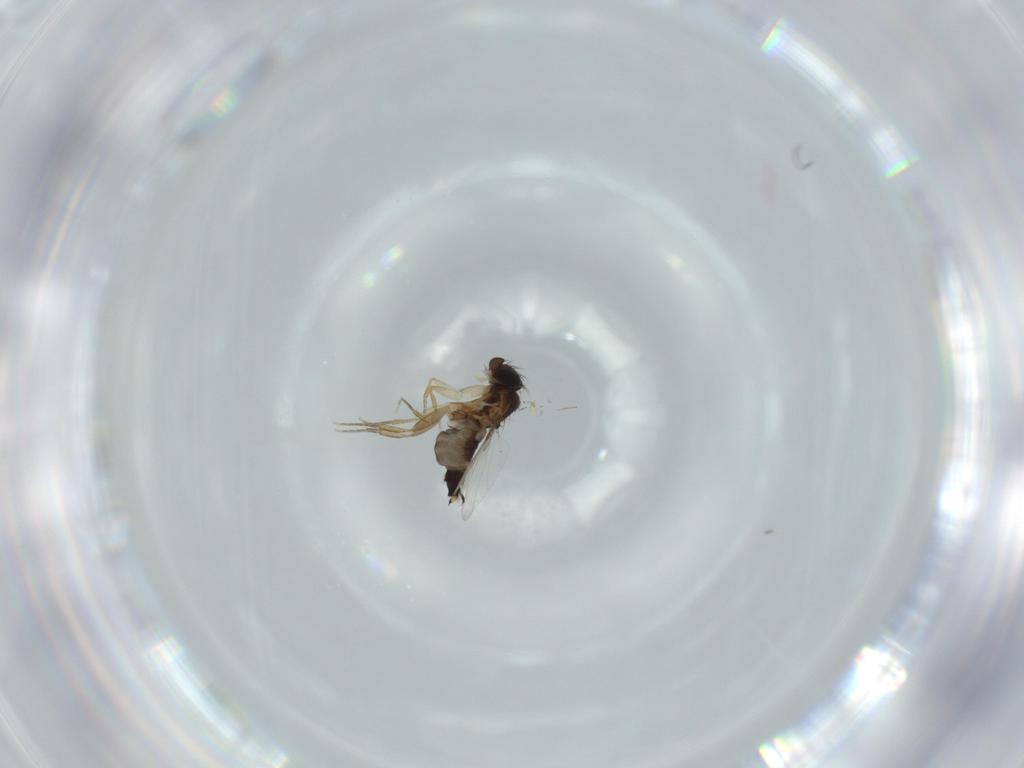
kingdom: Animalia
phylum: Arthropoda
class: Insecta
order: Diptera
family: Phoridae
